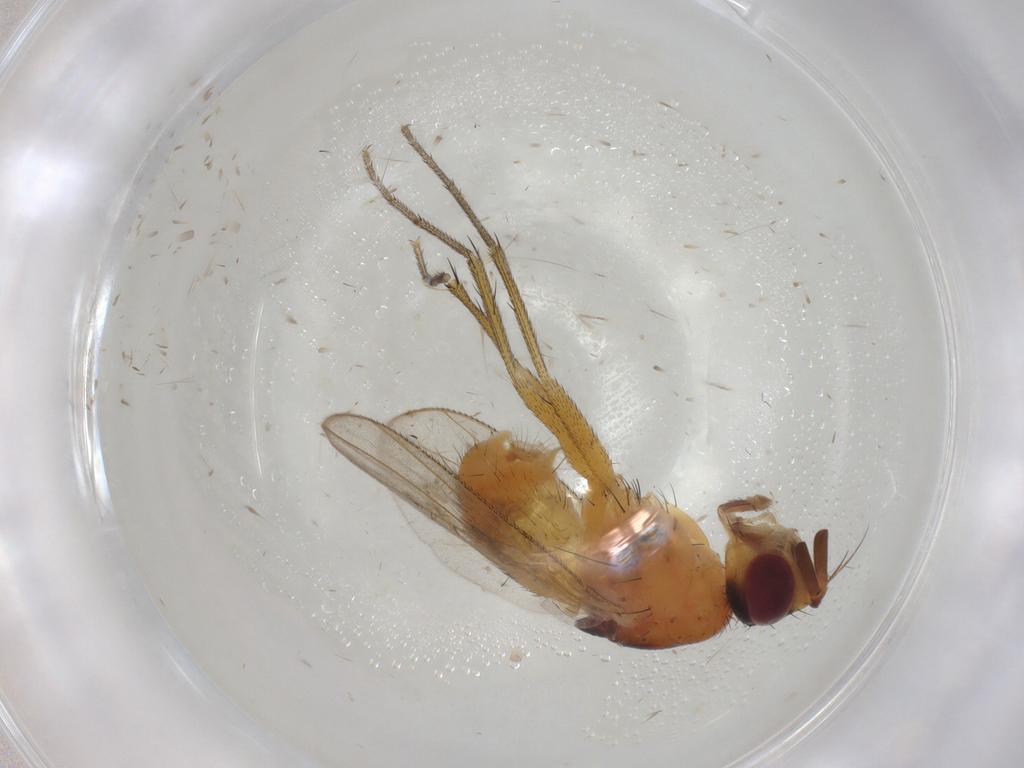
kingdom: Animalia
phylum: Arthropoda
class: Insecta
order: Diptera
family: Muscidae
